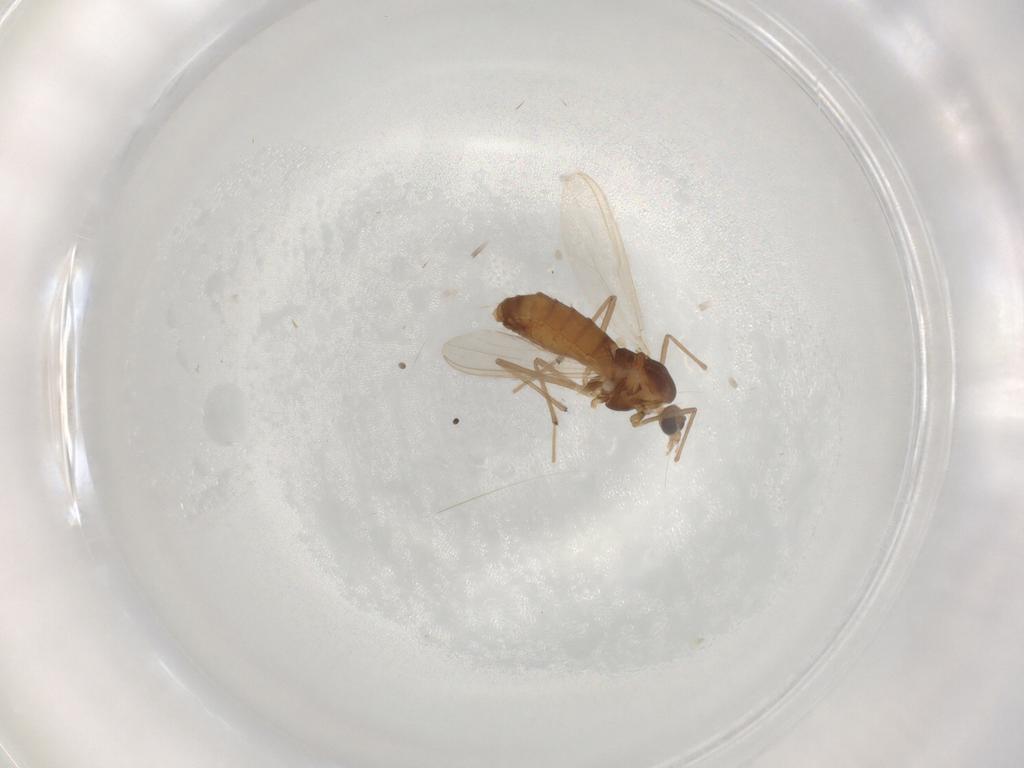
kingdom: Animalia
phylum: Arthropoda
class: Insecta
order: Diptera
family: Chironomidae
